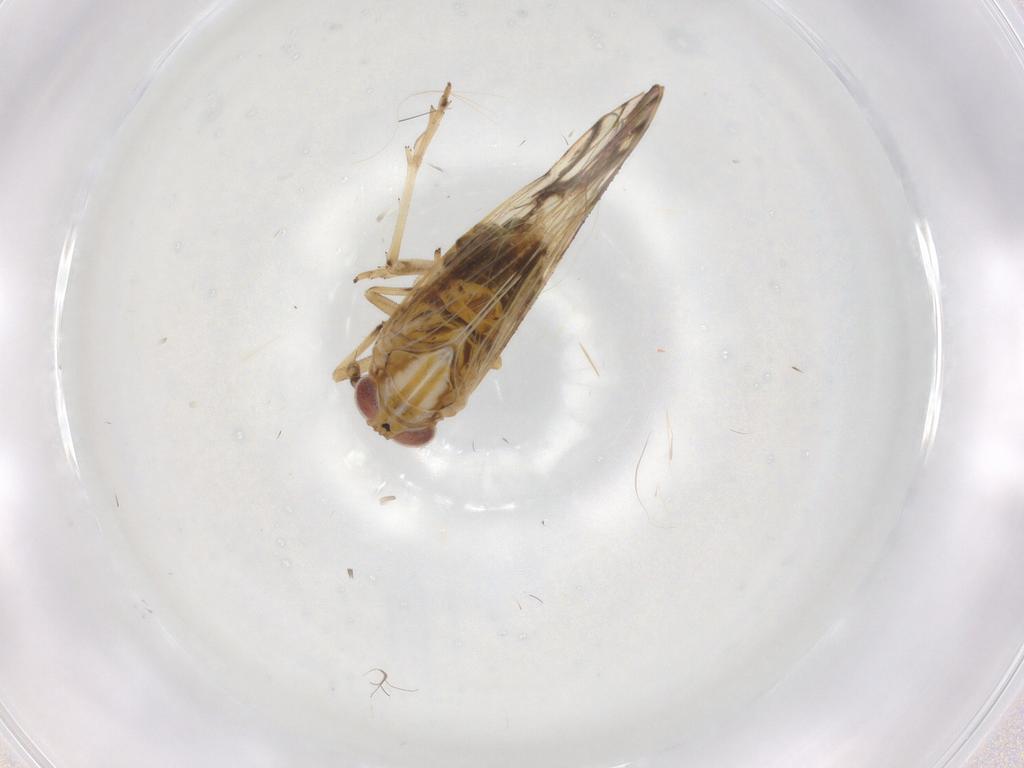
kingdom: Animalia
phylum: Arthropoda
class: Insecta
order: Hemiptera
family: Delphacidae
